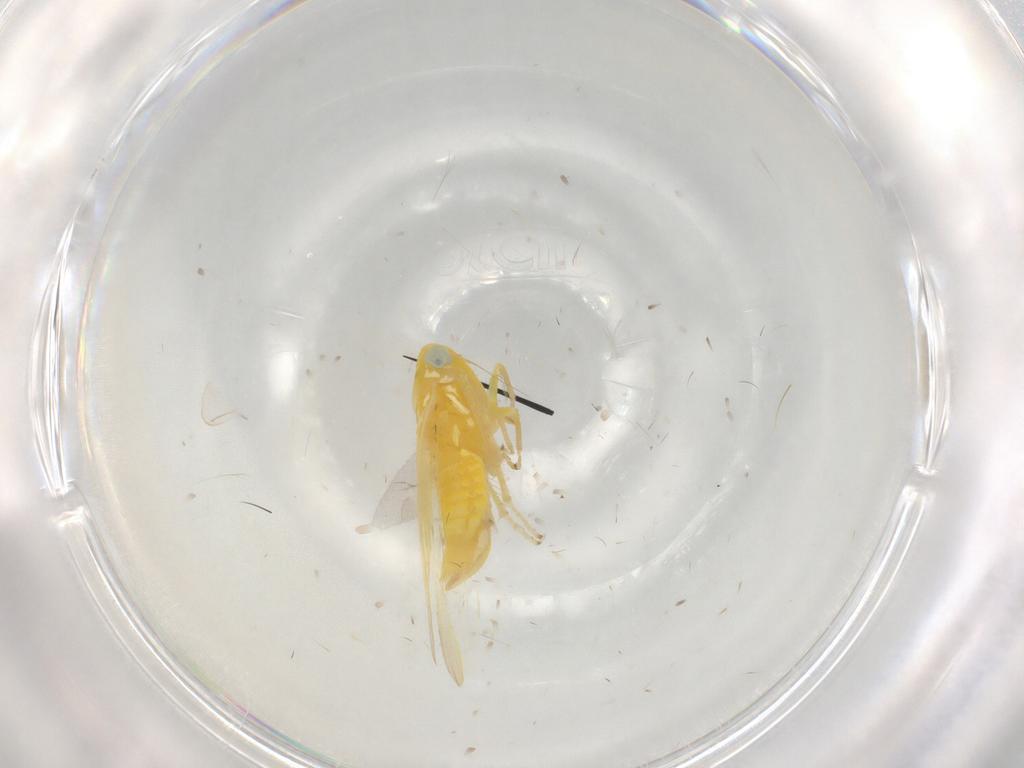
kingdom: Animalia
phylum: Arthropoda
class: Insecta
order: Hemiptera
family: Cicadellidae
